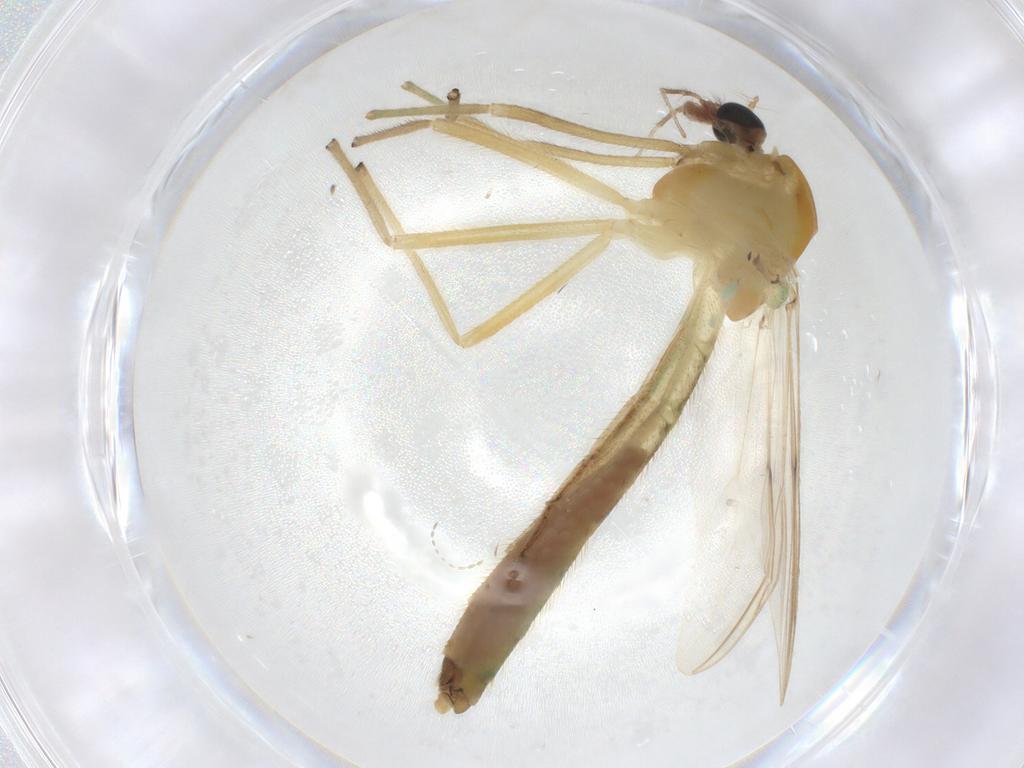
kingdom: Animalia
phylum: Arthropoda
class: Insecta
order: Diptera
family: Chironomidae
